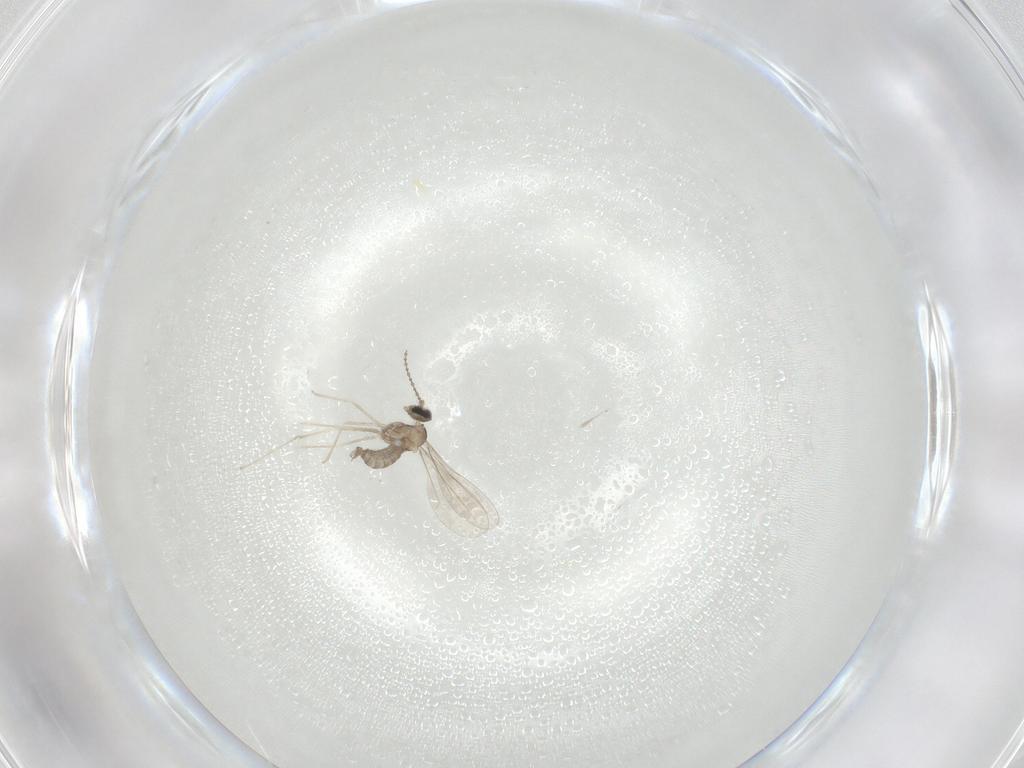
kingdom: Animalia
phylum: Arthropoda
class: Insecta
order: Diptera
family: Cecidomyiidae
